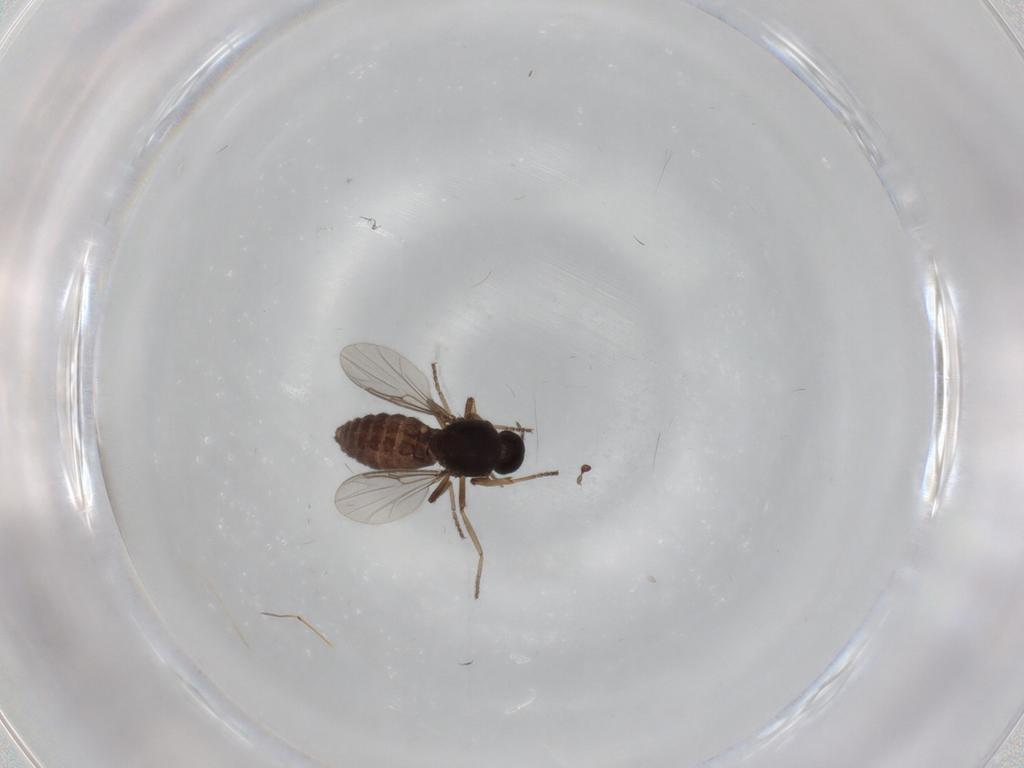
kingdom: Animalia
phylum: Arthropoda
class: Insecta
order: Diptera
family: Ceratopogonidae
